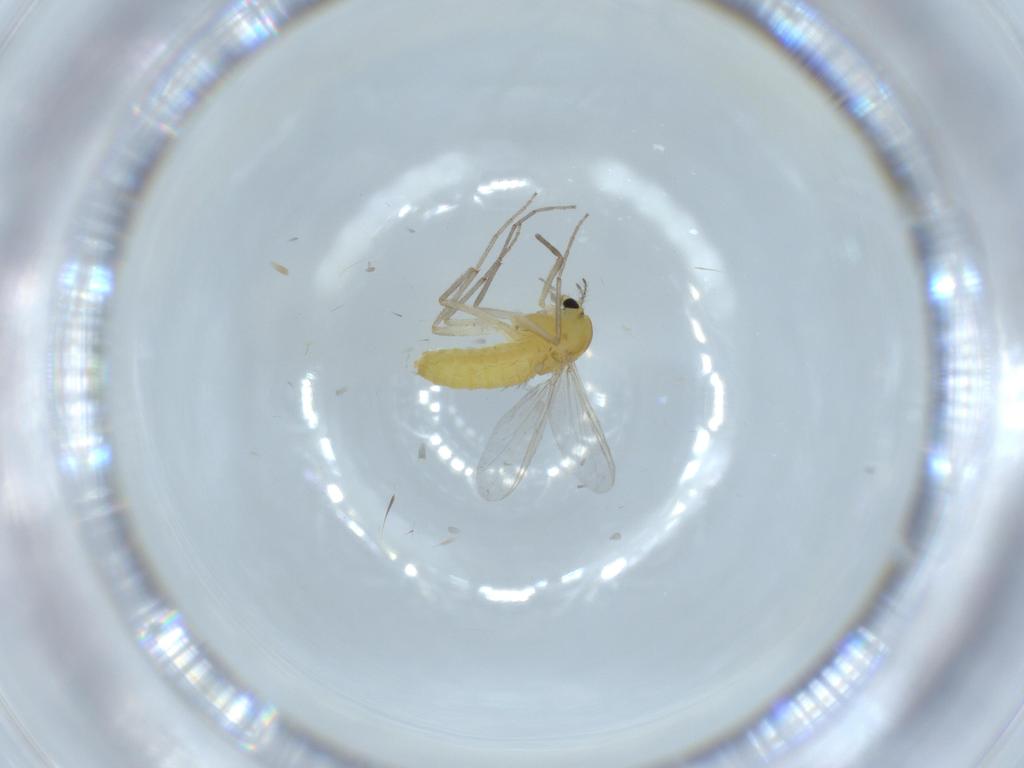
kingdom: Animalia
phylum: Arthropoda
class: Insecta
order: Diptera
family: Chironomidae
